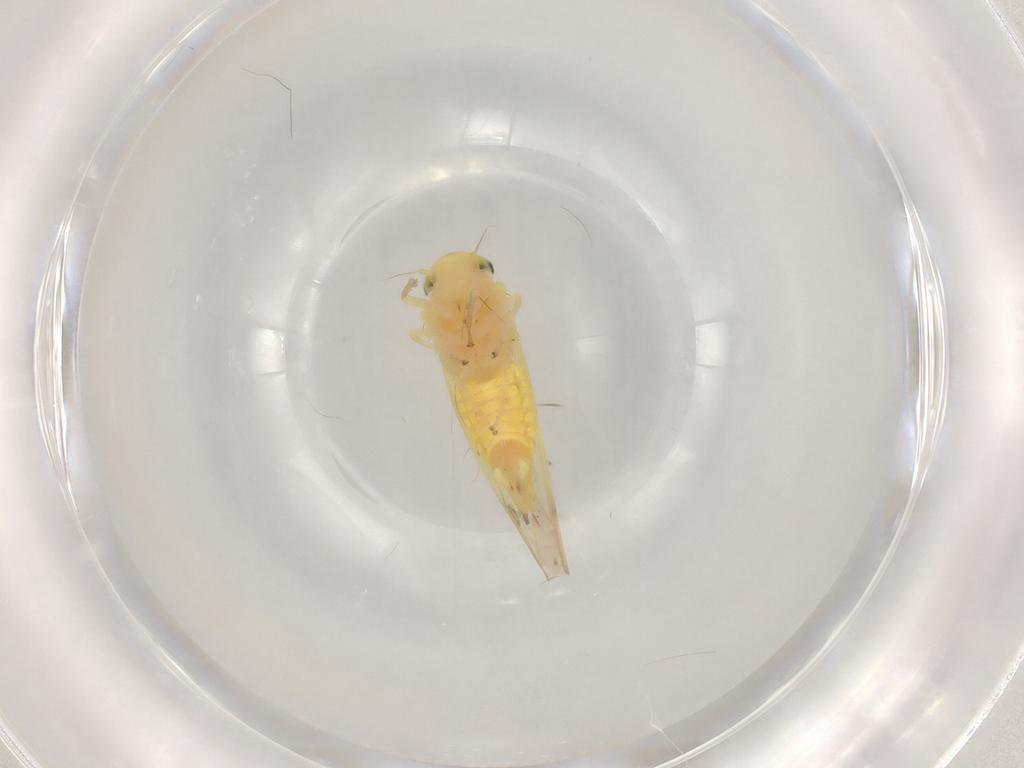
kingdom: Animalia
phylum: Arthropoda
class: Insecta
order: Hemiptera
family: Cicadellidae
